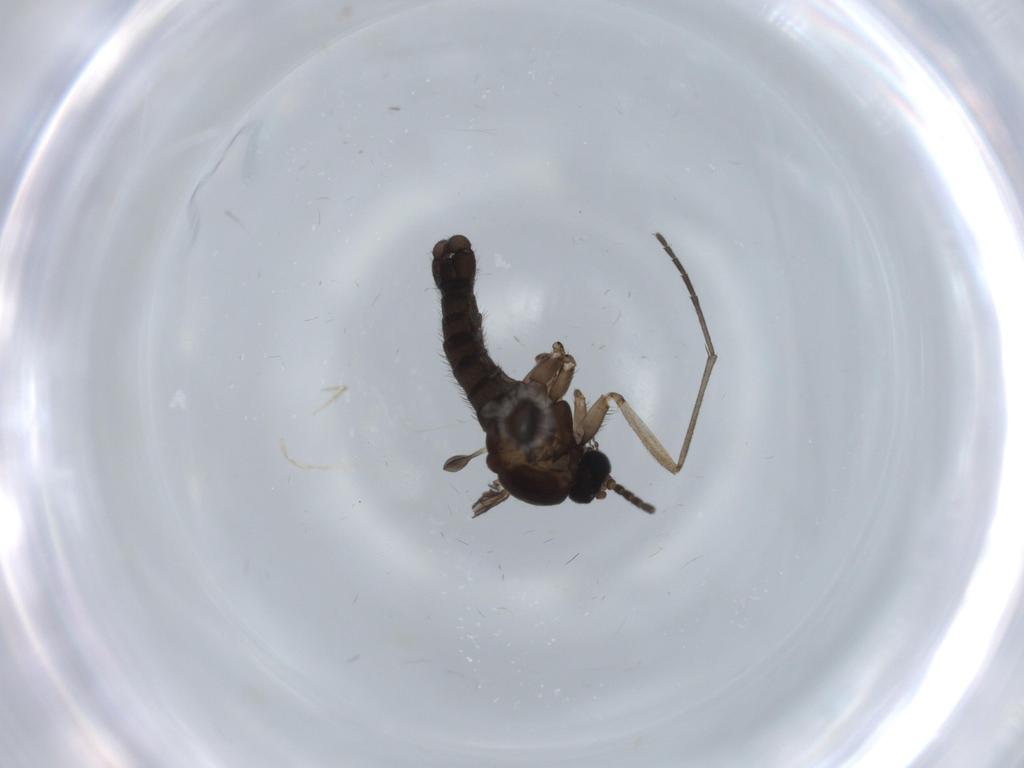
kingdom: Animalia
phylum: Arthropoda
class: Insecta
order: Diptera
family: Sciaridae
